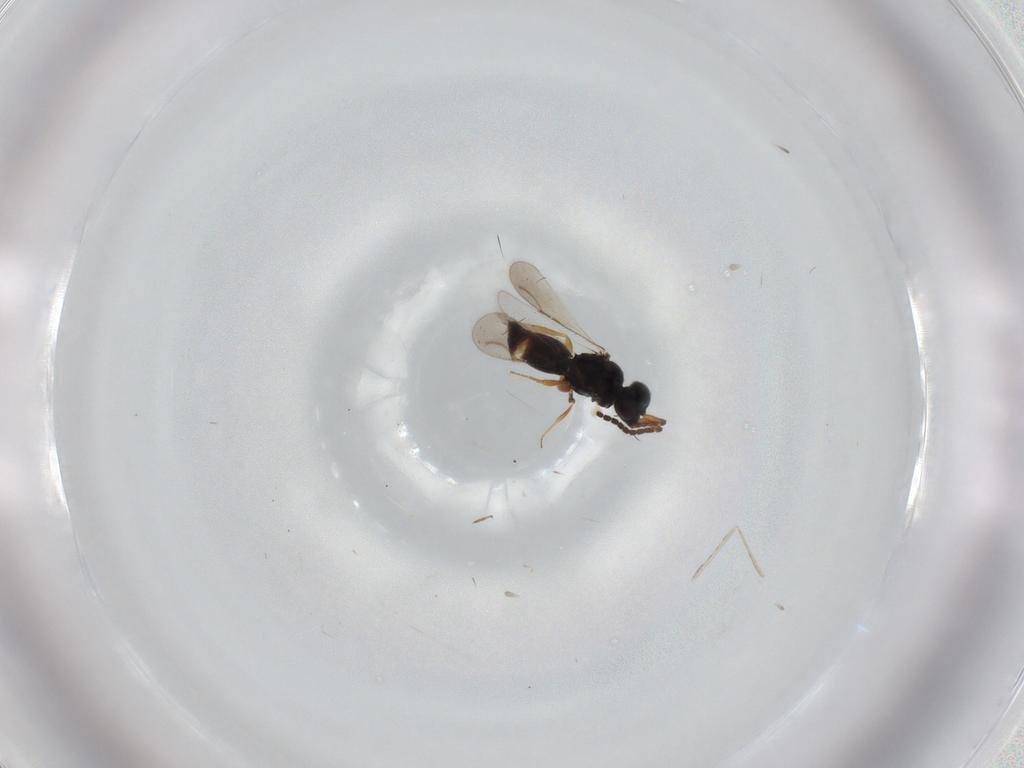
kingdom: Animalia
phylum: Arthropoda
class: Insecta
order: Hymenoptera
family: Ceraphronidae
